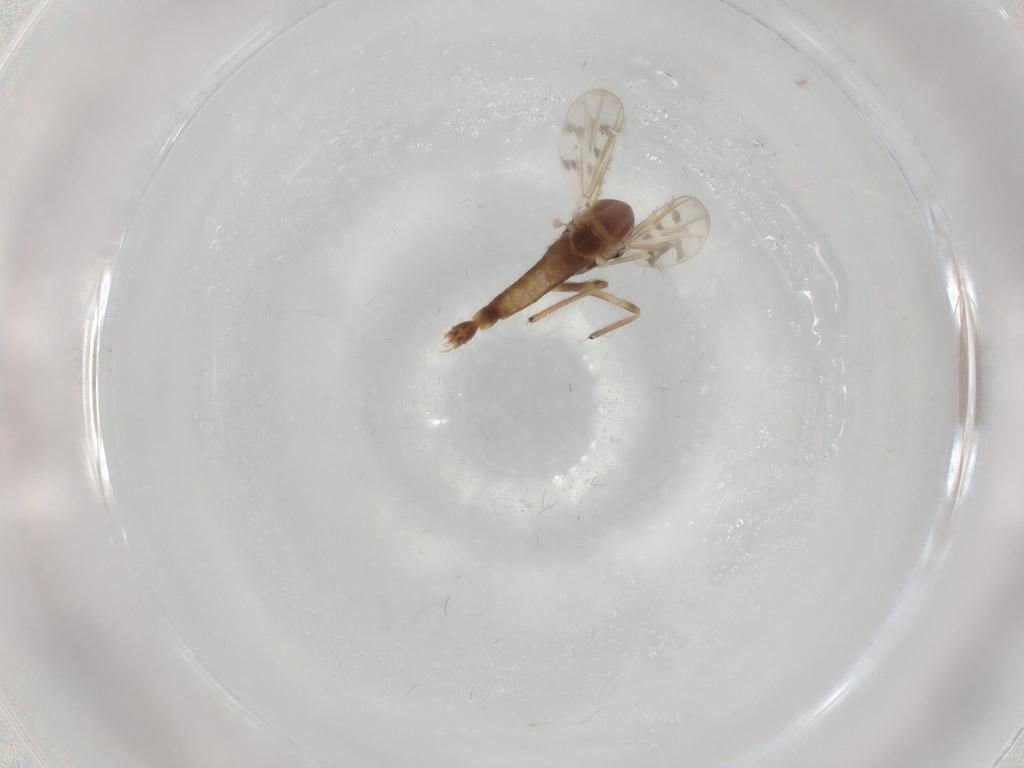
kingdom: Animalia
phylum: Arthropoda
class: Insecta
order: Diptera
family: Chironomidae
